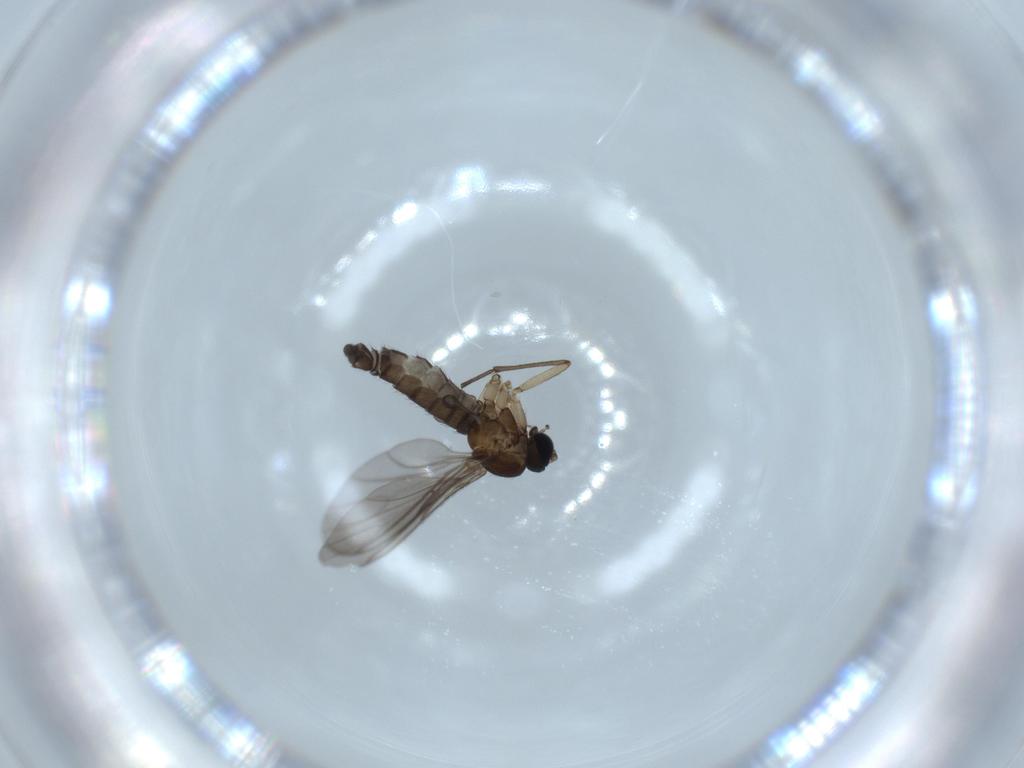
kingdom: Animalia
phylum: Arthropoda
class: Insecta
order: Diptera
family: Sciaridae
